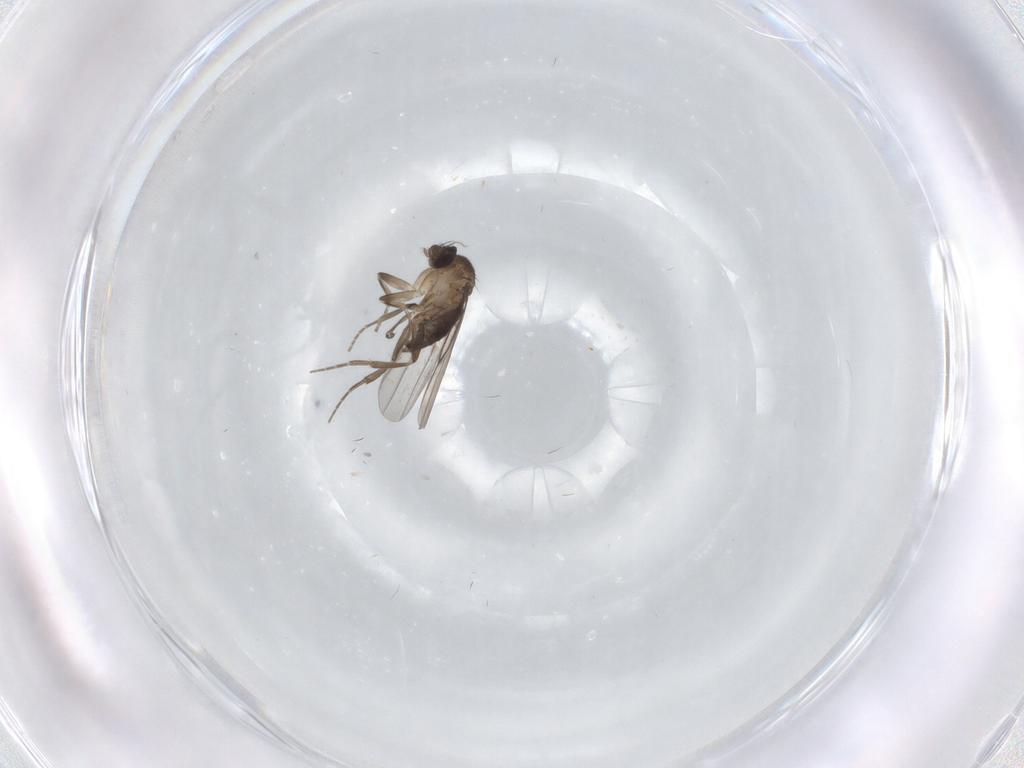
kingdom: Animalia
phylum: Arthropoda
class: Insecta
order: Diptera
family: Phoridae
